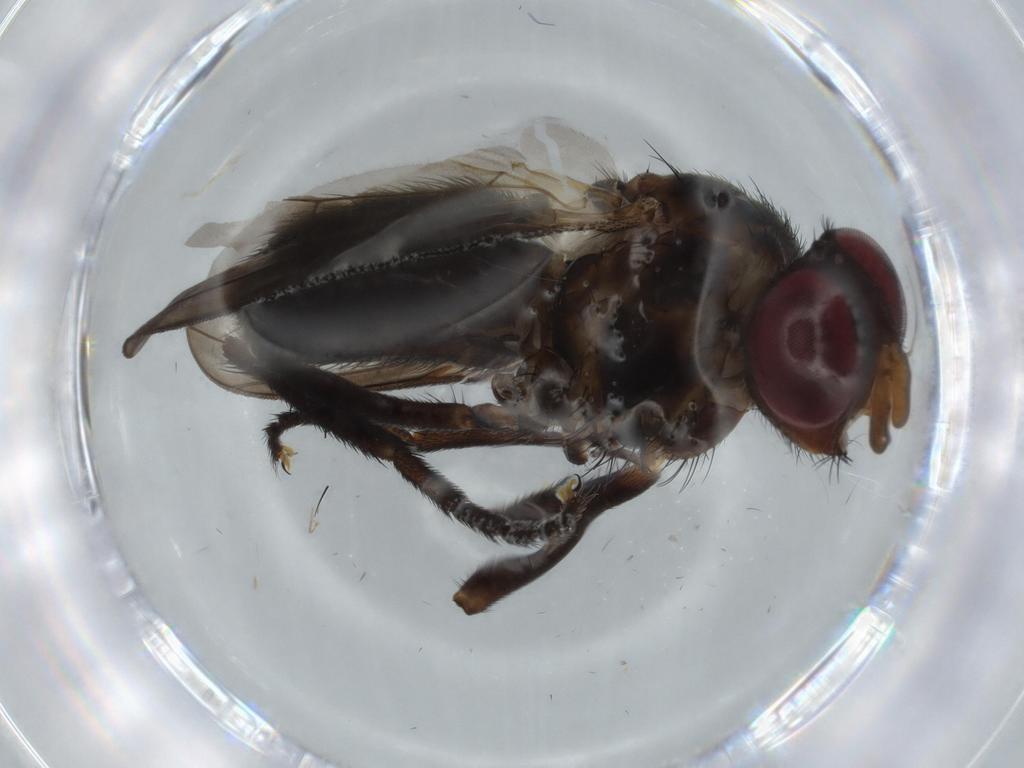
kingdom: Animalia
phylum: Arthropoda
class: Insecta
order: Diptera
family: Calliphoridae
